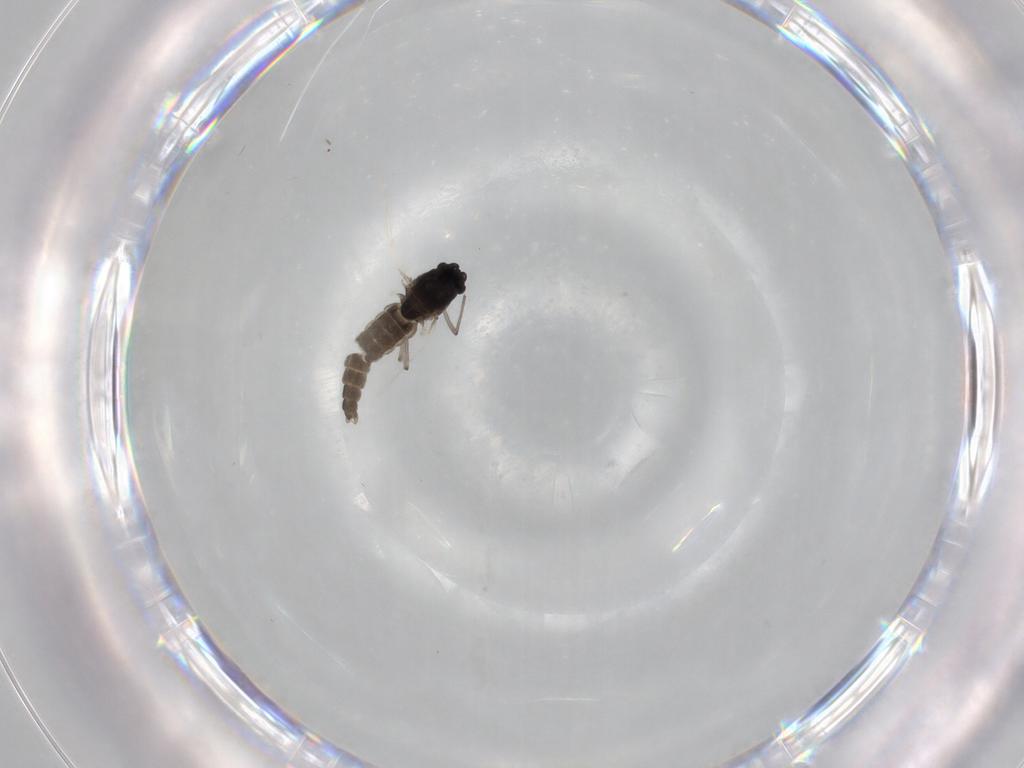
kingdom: Animalia
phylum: Arthropoda
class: Insecta
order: Diptera
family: Chironomidae
